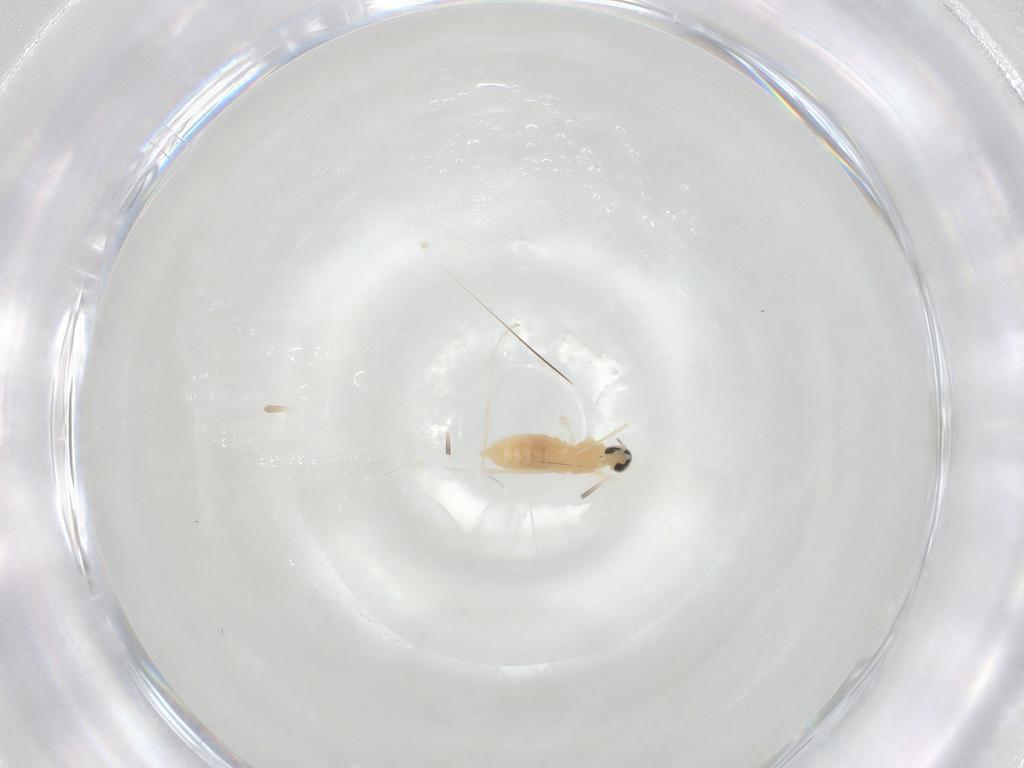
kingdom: Animalia
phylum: Arthropoda
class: Insecta
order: Diptera
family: Cecidomyiidae
